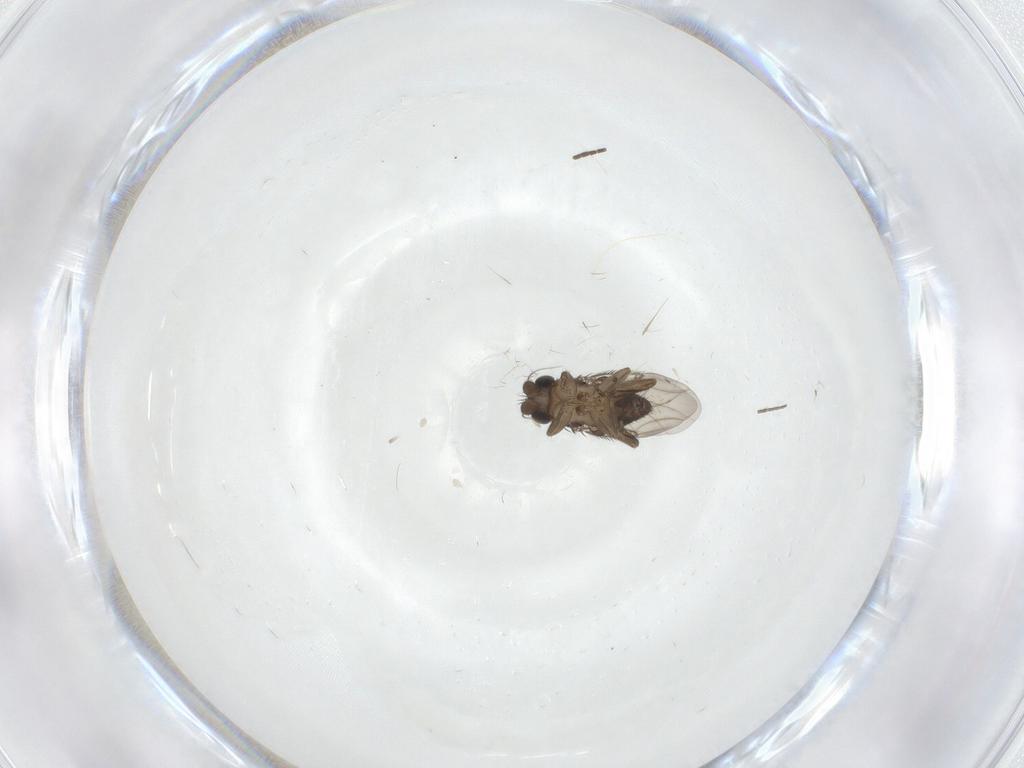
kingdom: Animalia
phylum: Arthropoda
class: Insecta
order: Diptera
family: Phoridae
